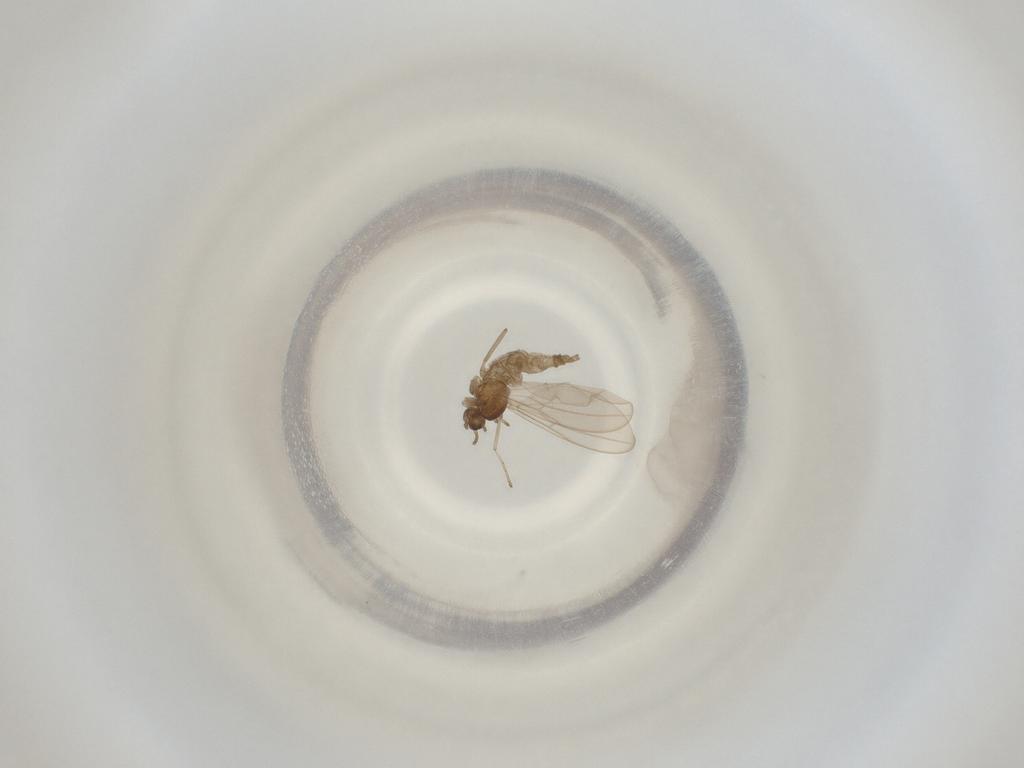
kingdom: Animalia
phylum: Arthropoda
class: Insecta
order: Diptera
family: Cecidomyiidae
